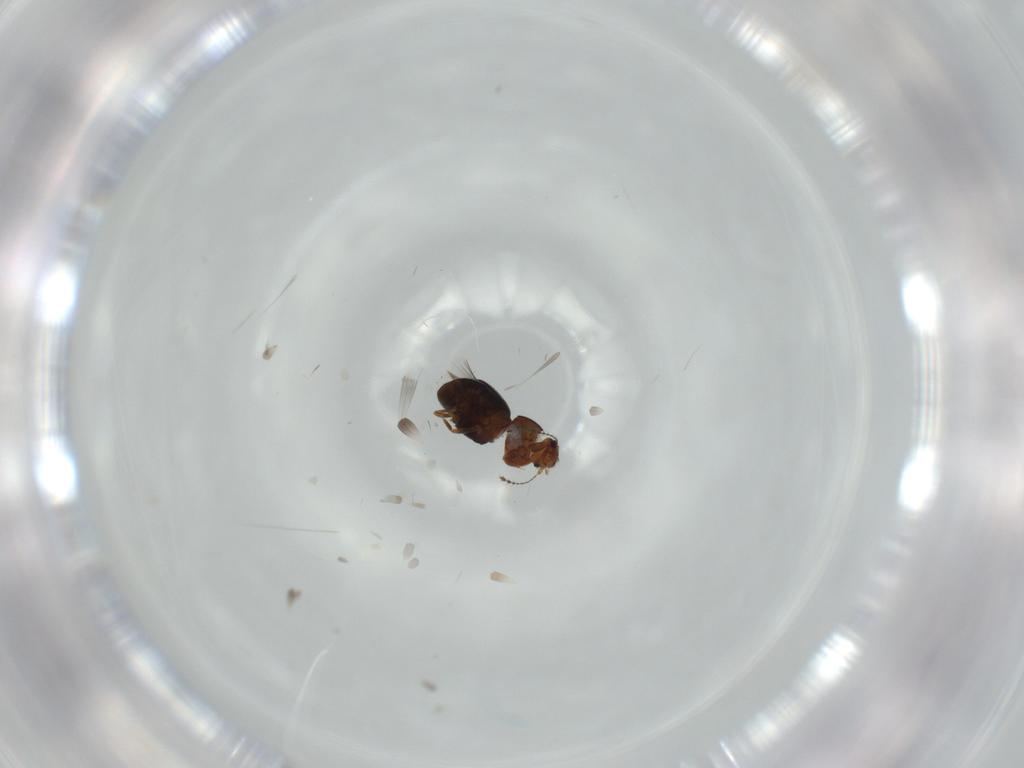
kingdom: Animalia
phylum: Arthropoda
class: Insecta
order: Coleoptera
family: Ptiliidae
